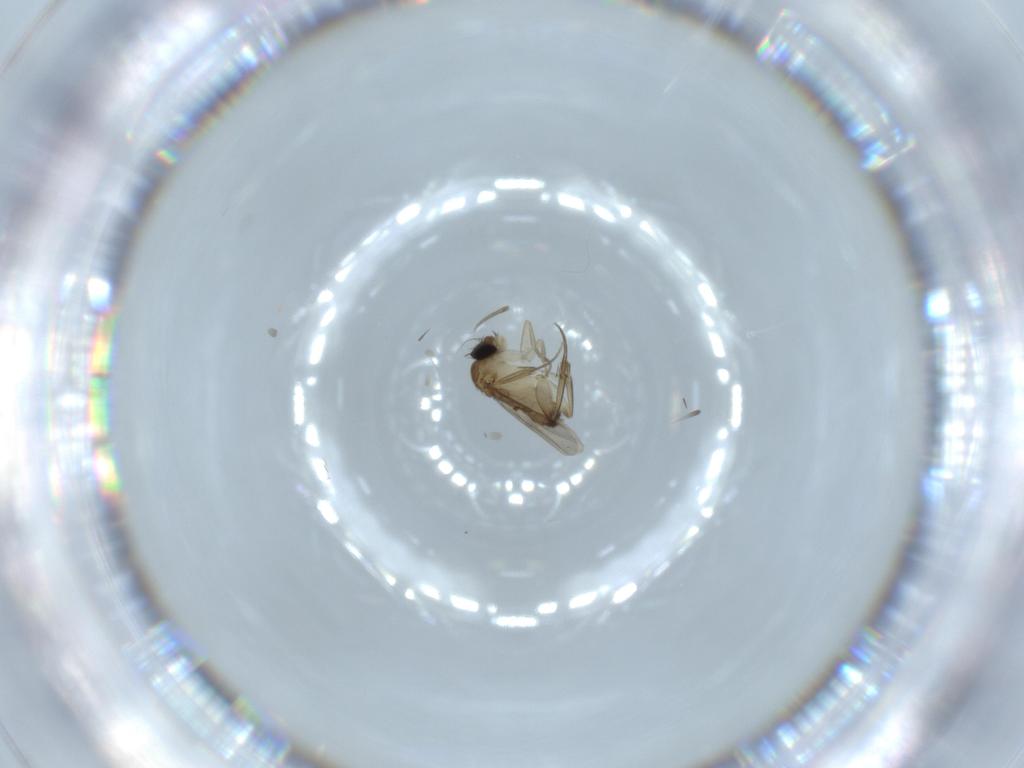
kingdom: Animalia
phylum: Arthropoda
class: Insecta
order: Diptera
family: Phoridae
